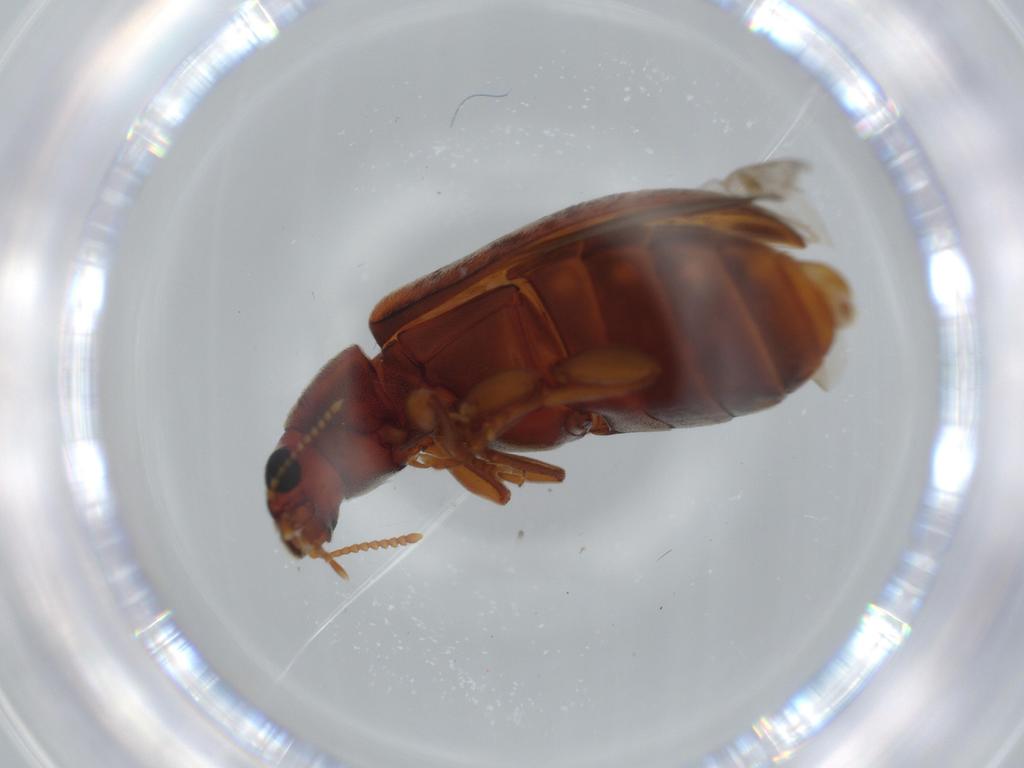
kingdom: Animalia
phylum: Arthropoda
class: Insecta
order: Coleoptera
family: Mycteridae
